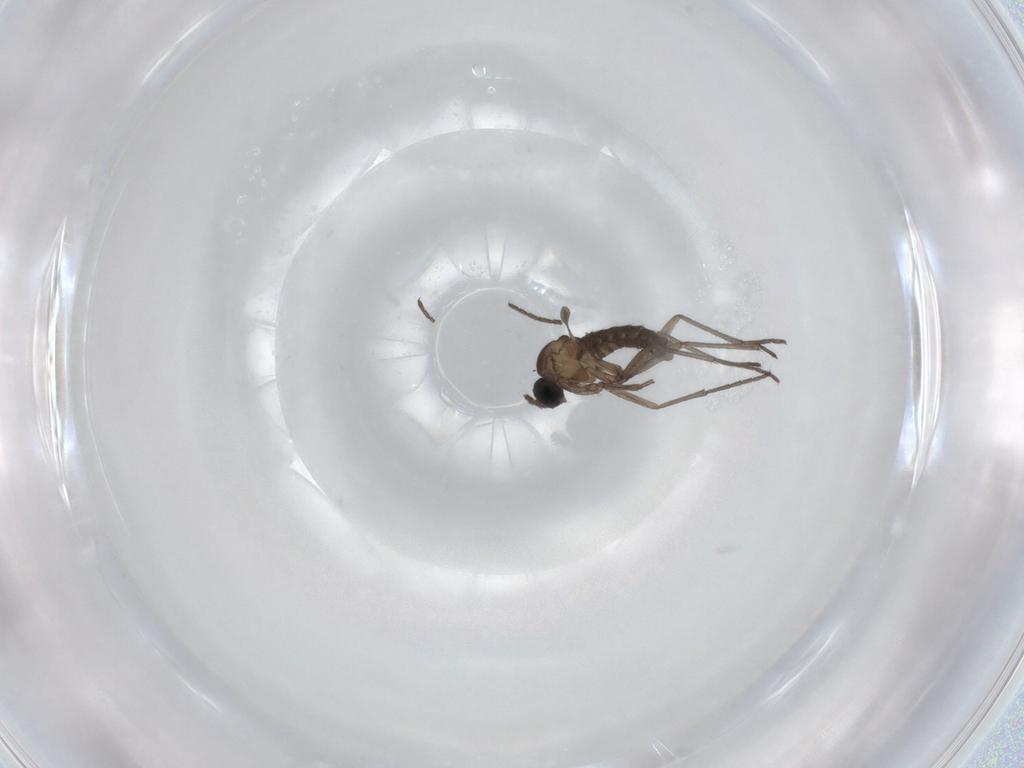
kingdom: Animalia
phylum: Arthropoda
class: Insecta
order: Diptera
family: Sciaridae
